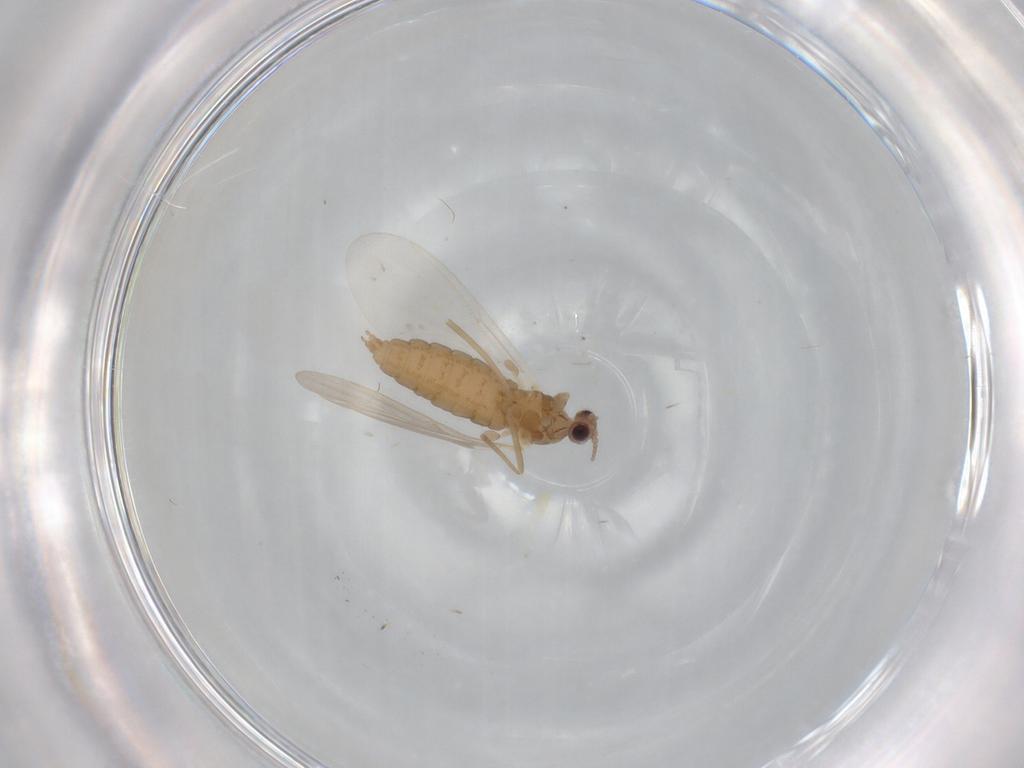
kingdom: Animalia
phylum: Arthropoda
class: Insecta
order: Diptera
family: Cecidomyiidae
